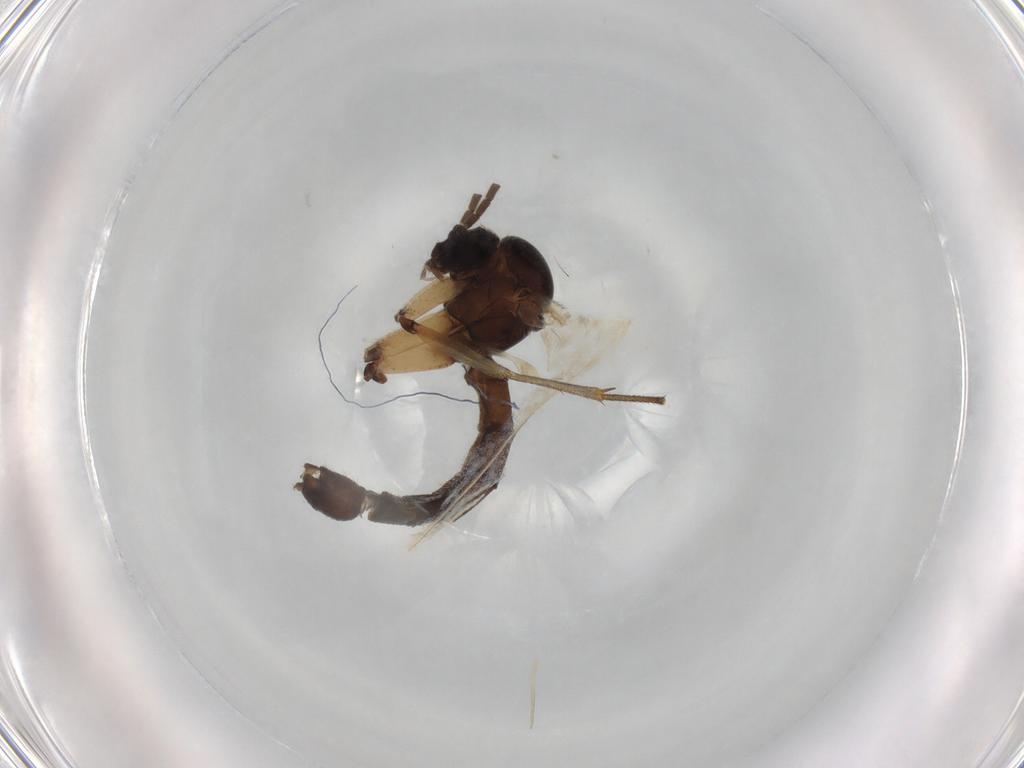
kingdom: Animalia
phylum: Arthropoda
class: Insecta
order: Diptera
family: Mycetophilidae
